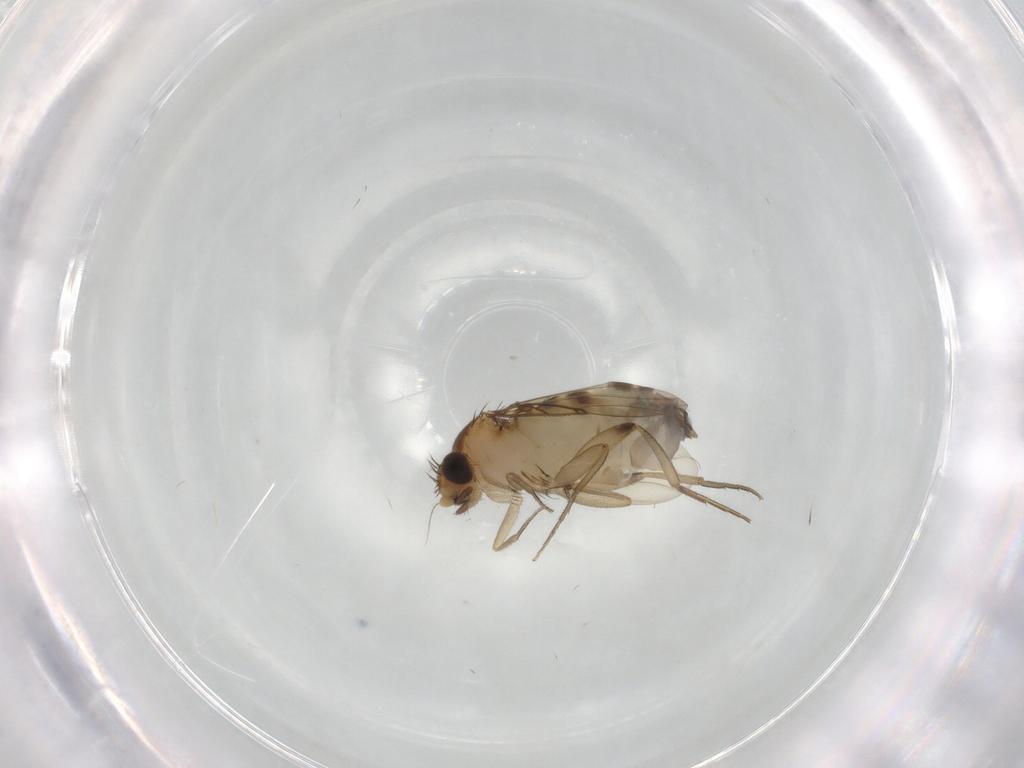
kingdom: Animalia
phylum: Arthropoda
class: Insecta
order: Diptera
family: Phoridae
